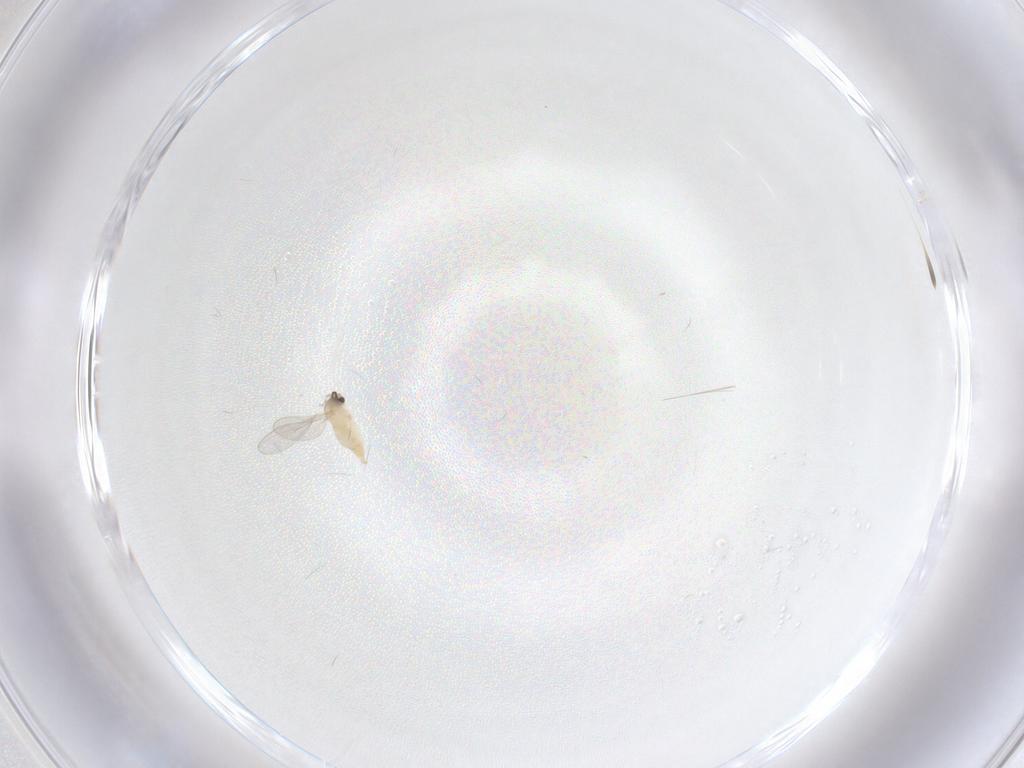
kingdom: Animalia
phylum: Arthropoda
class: Insecta
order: Diptera
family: Cecidomyiidae
